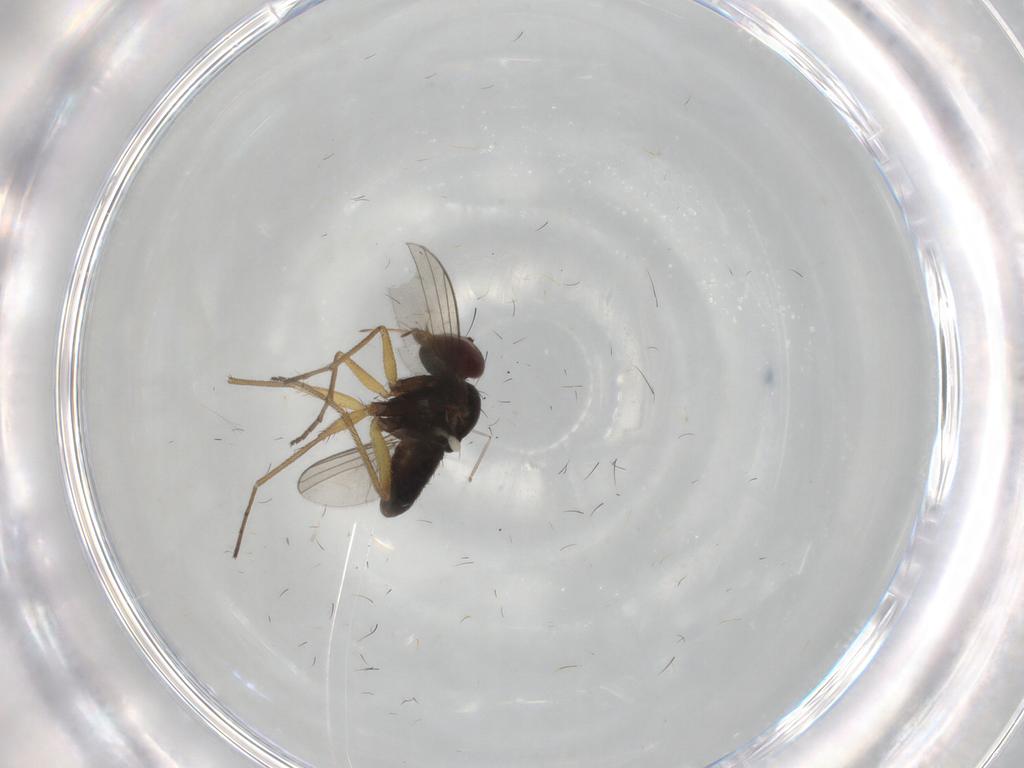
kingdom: Animalia
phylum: Arthropoda
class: Insecta
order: Diptera
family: Dolichopodidae
